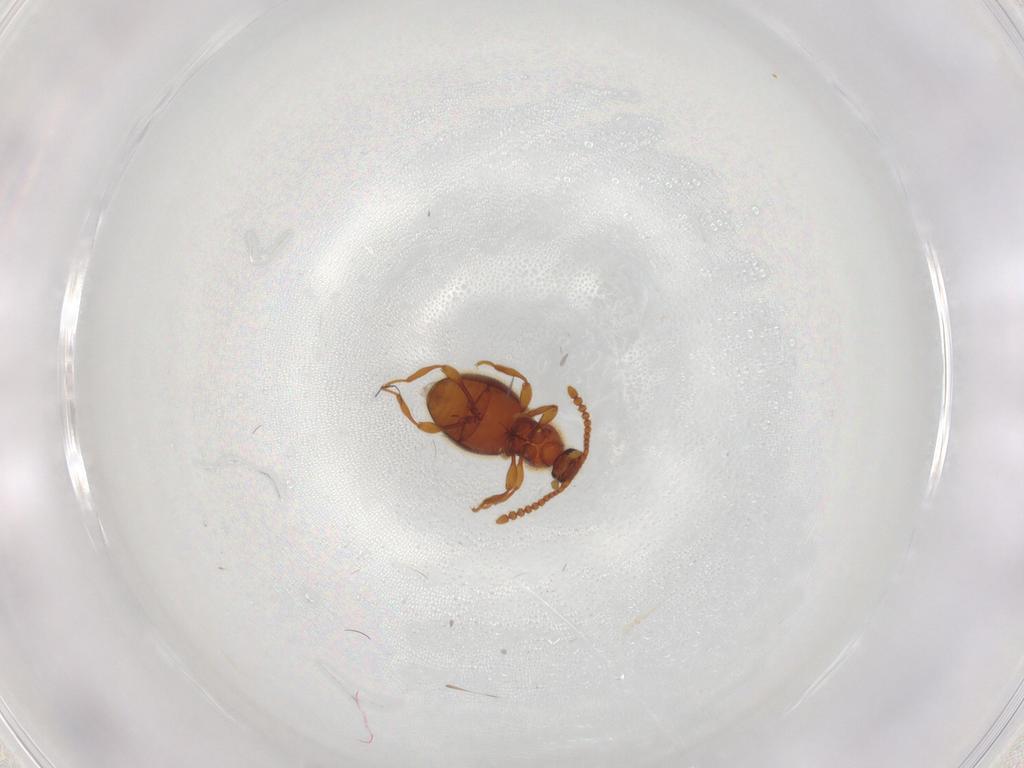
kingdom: Animalia
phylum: Arthropoda
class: Insecta
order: Coleoptera
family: Staphylinidae
